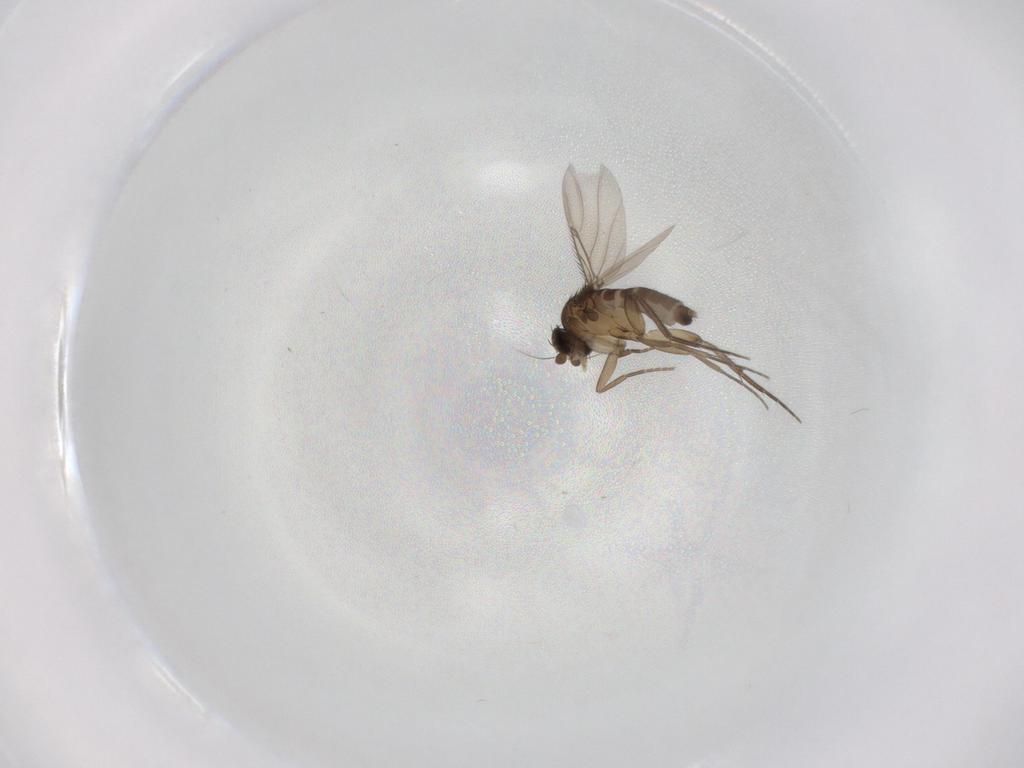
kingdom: Animalia
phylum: Arthropoda
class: Insecta
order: Diptera
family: Phoridae
